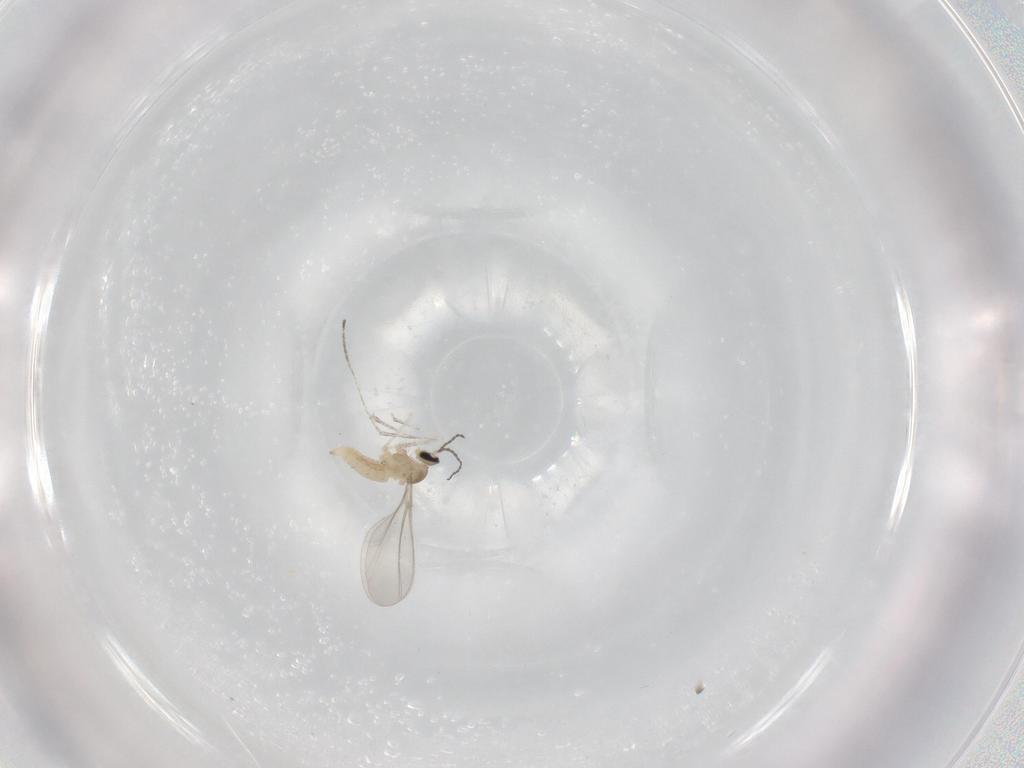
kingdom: Animalia
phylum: Arthropoda
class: Insecta
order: Diptera
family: Cecidomyiidae
